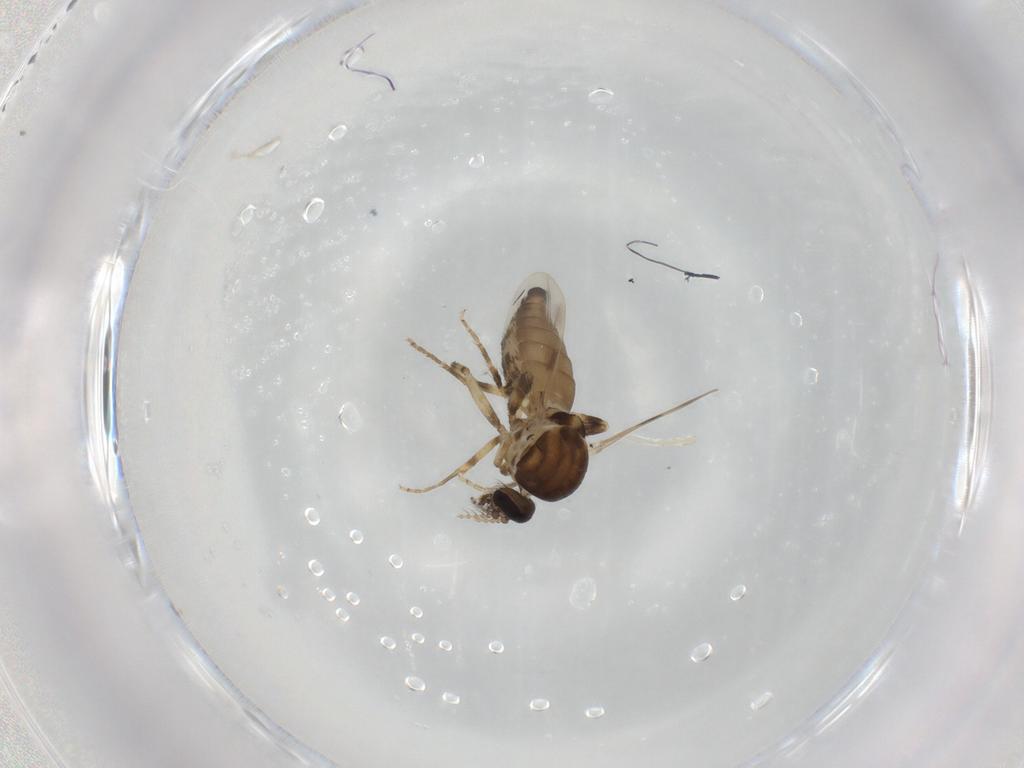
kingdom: Animalia
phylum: Arthropoda
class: Insecta
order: Diptera
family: Ceratopogonidae
